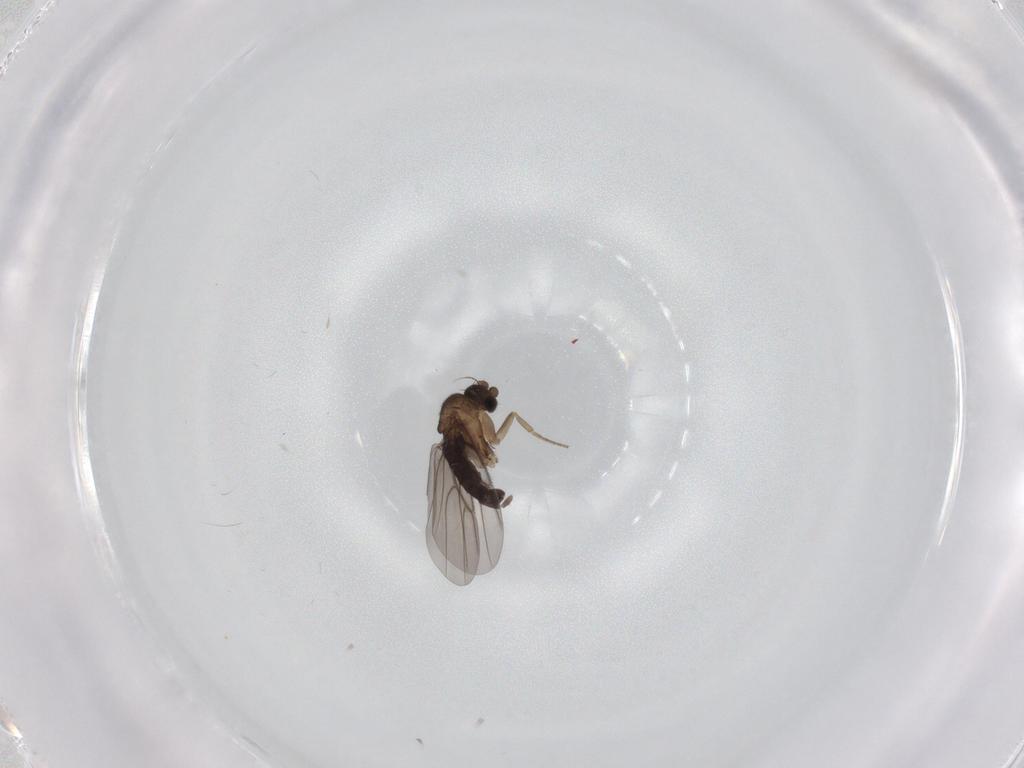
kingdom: Animalia
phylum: Arthropoda
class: Insecta
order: Diptera
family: Phoridae
